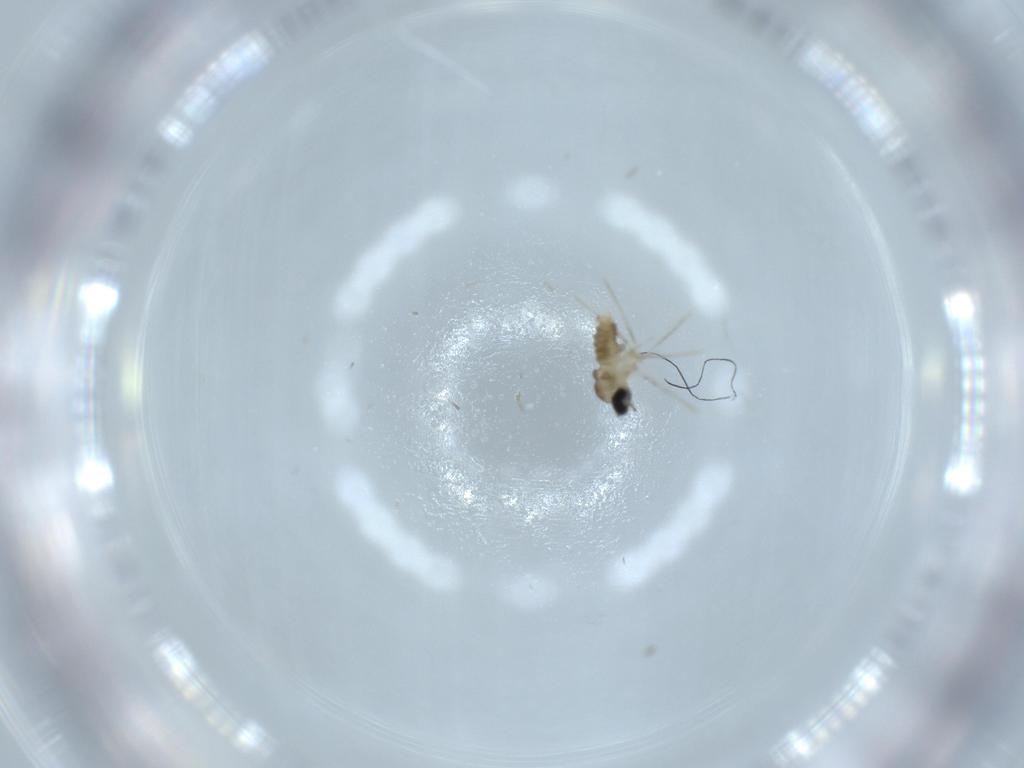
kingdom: Animalia
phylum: Arthropoda
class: Insecta
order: Diptera
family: Cecidomyiidae
